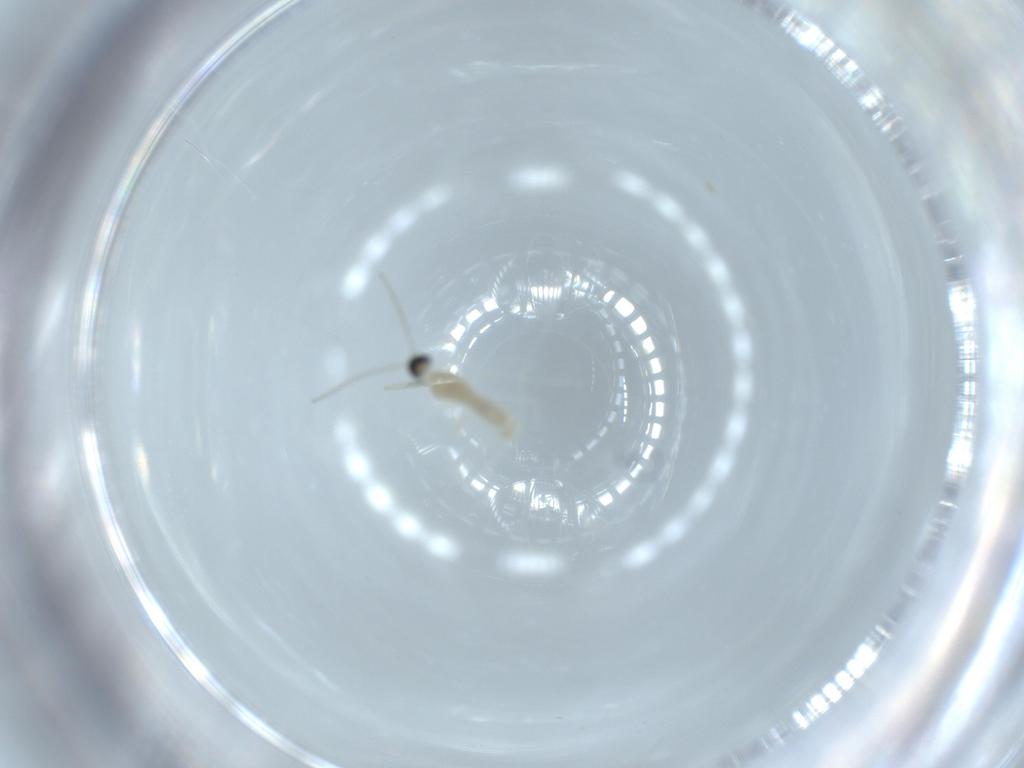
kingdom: Animalia
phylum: Arthropoda
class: Insecta
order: Diptera
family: Cecidomyiidae
